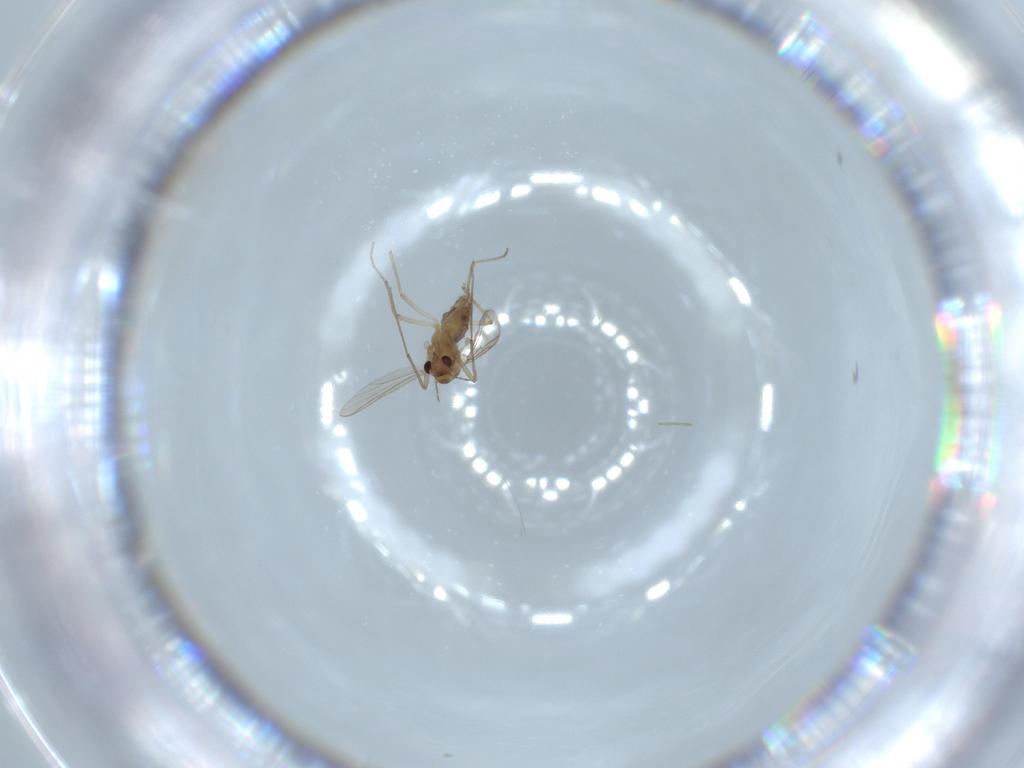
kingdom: Animalia
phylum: Arthropoda
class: Insecta
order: Diptera
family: Chironomidae
